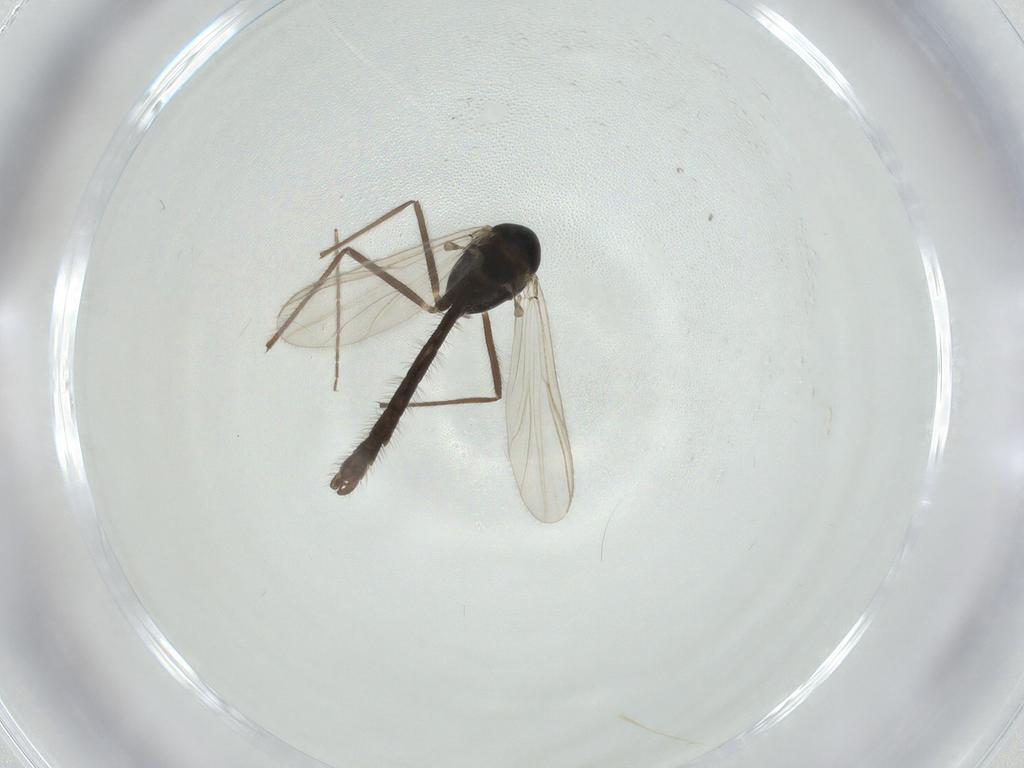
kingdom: Animalia
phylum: Arthropoda
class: Insecta
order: Diptera
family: Chironomidae
